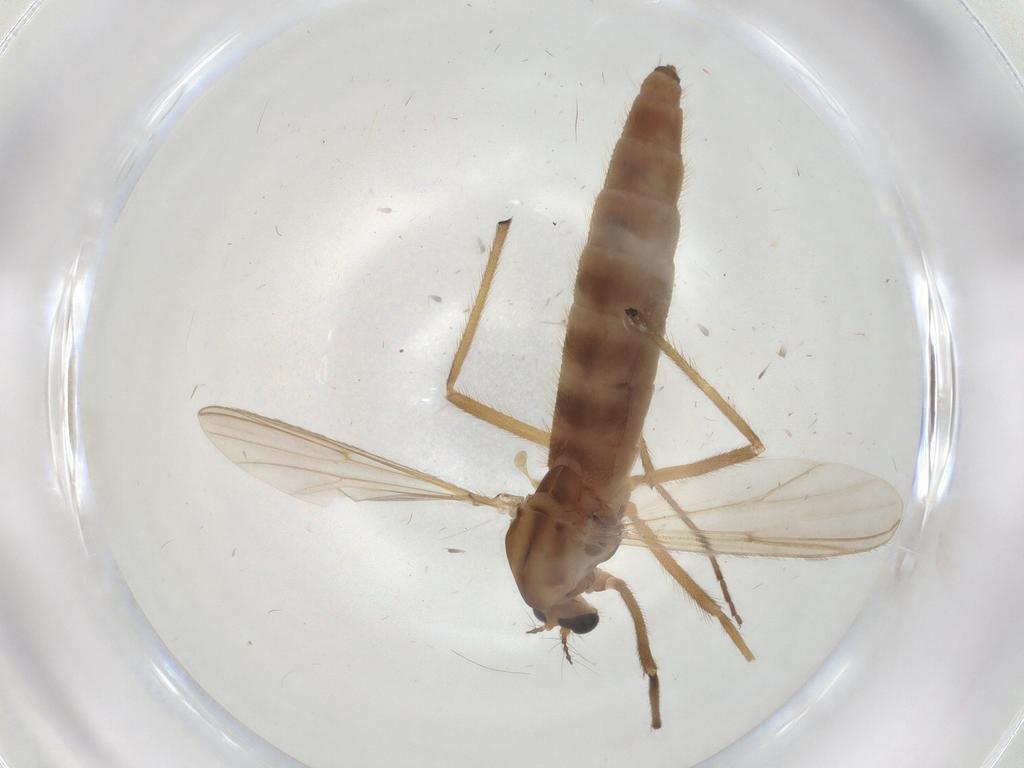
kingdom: Animalia
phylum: Arthropoda
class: Insecta
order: Diptera
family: Chironomidae
